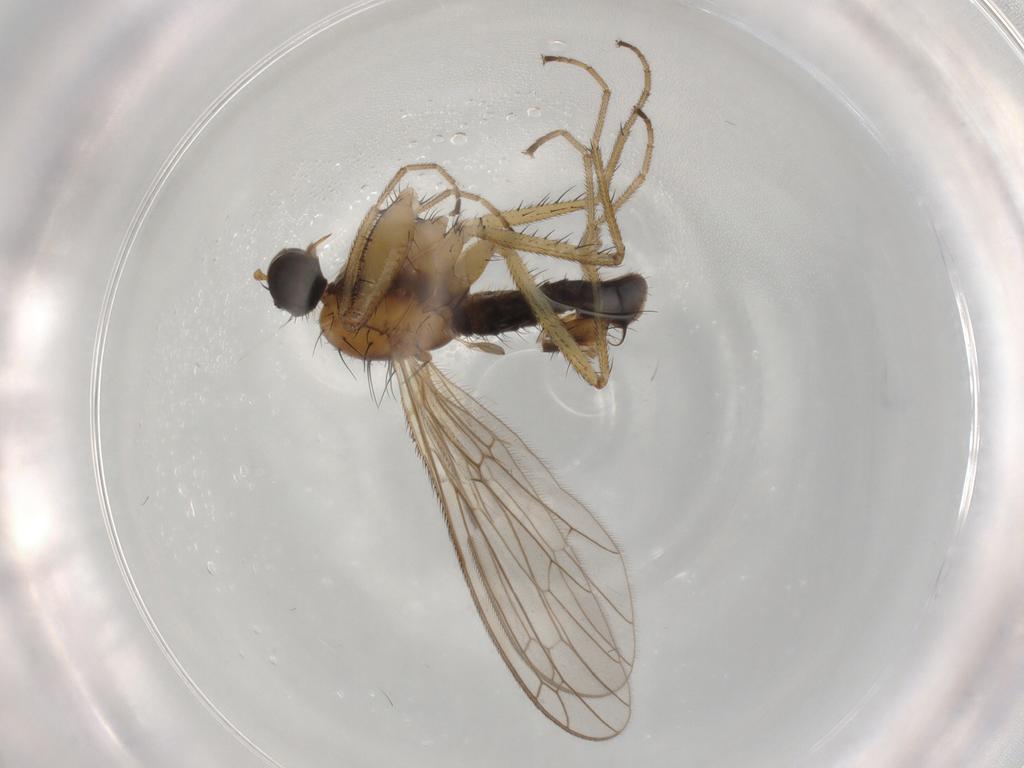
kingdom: Animalia
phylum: Arthropoda
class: Insecta
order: Diptera
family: Empididae
